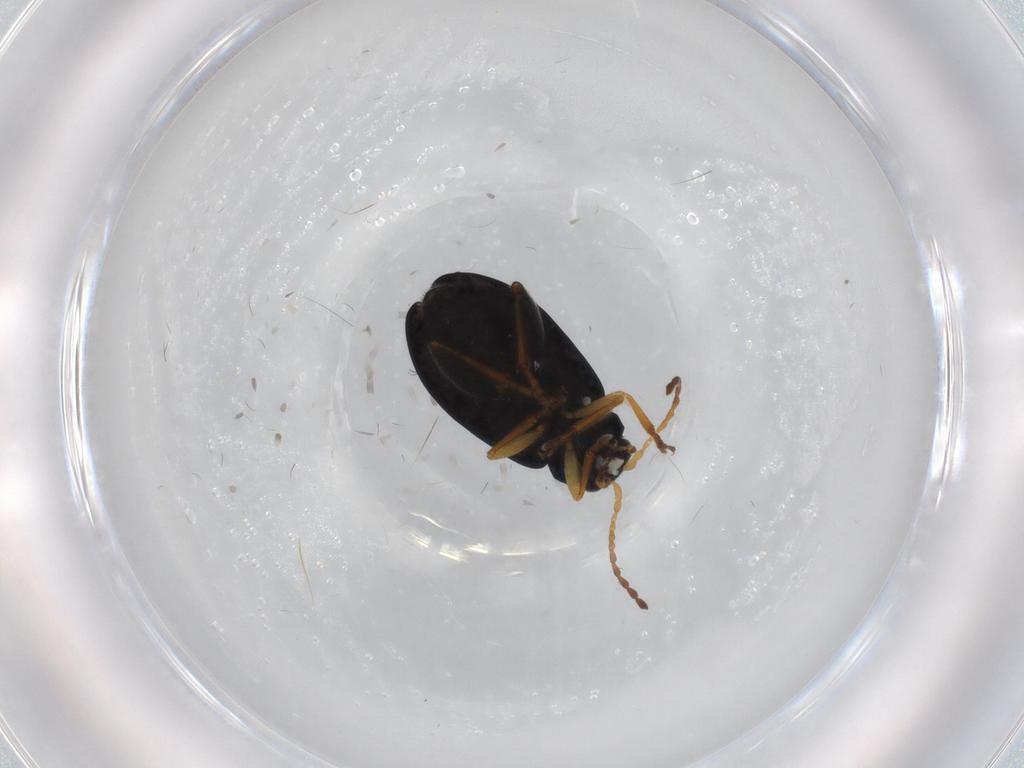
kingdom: Animalia
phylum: Arthropoda
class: Insecta
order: Coleoptera
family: Chrysomelidae
